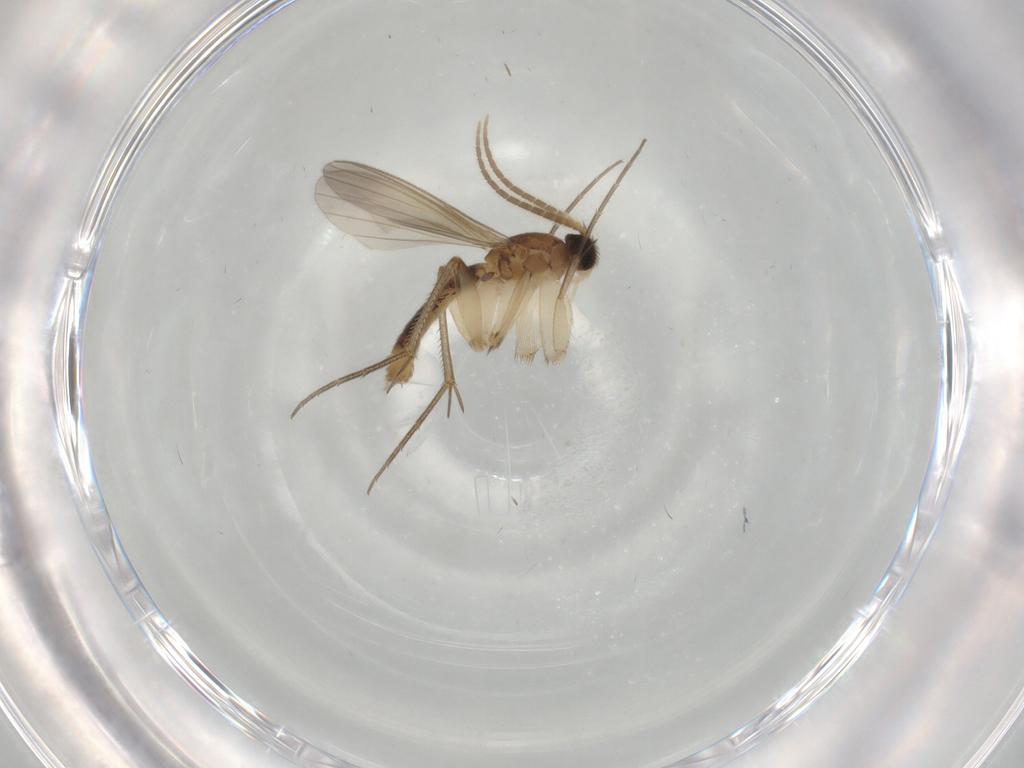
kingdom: Animalia
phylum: Arthropoda
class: Insecta
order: Diptera
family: Mycetophilidae
